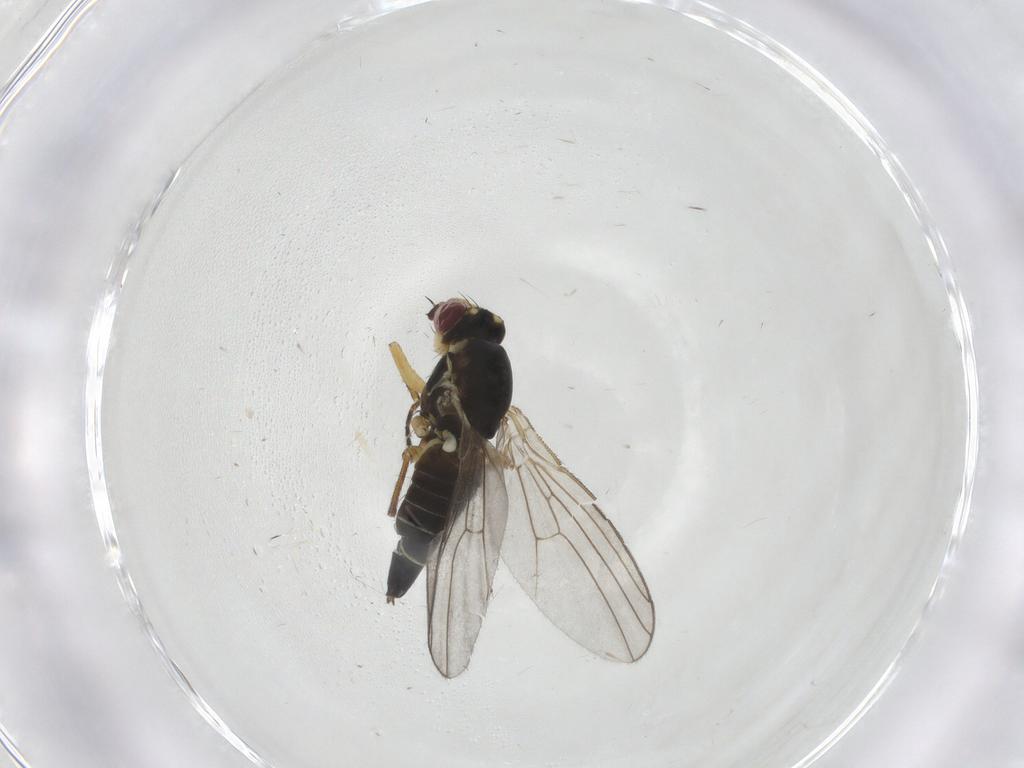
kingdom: Animalia
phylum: Arthropoda
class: Insecta
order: Diptera
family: Agromyzidae
